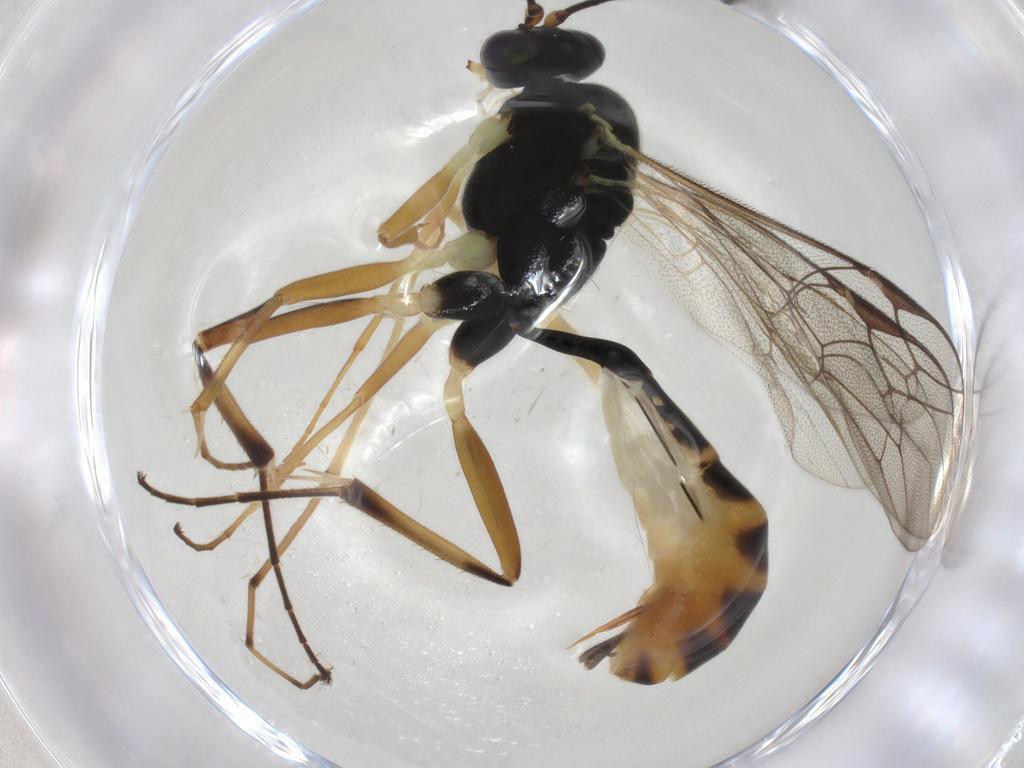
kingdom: Animalia
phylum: Arthropoda
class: Insecta
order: Hymenoptera
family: Ichneumonidae
